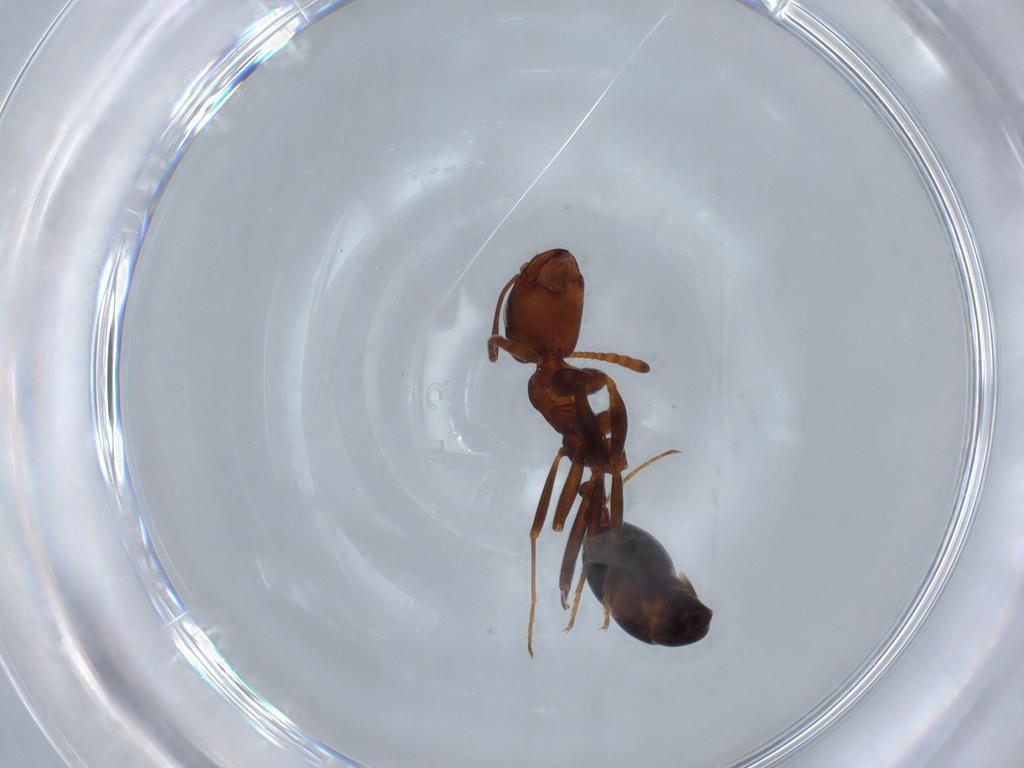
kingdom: Animalia
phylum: Arthropoda
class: Insecta
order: Hymenoptera
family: Formicidae
